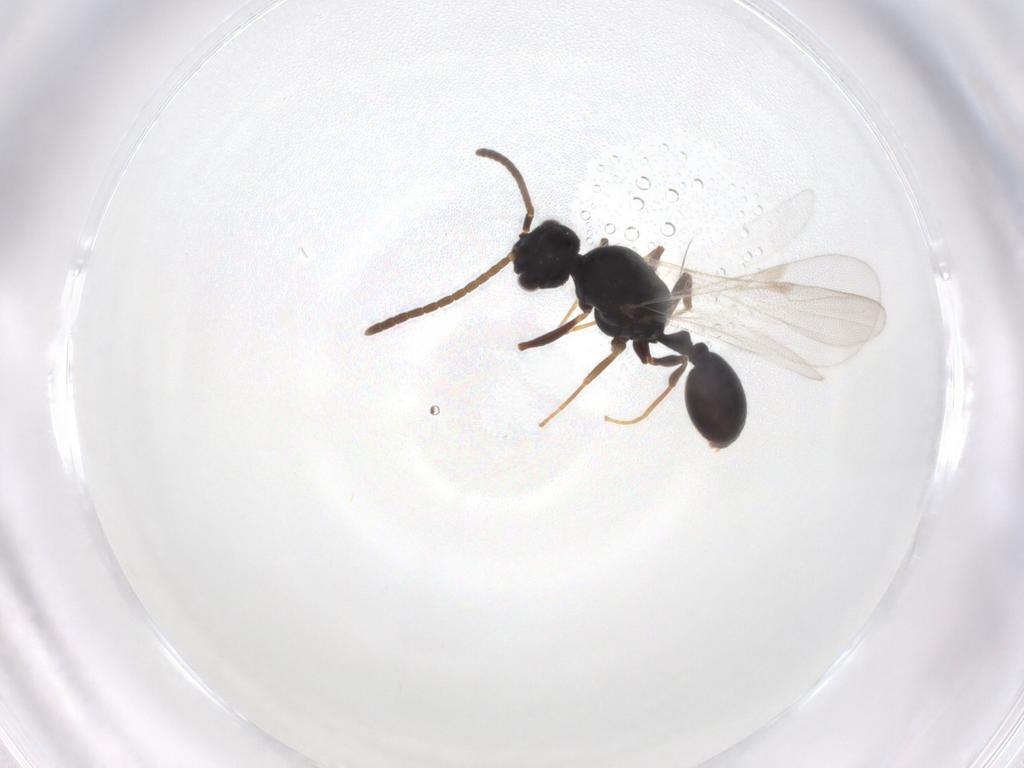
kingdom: Animalia
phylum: Arthropoda
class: Insecta
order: Hymenoptera
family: Formicidae
